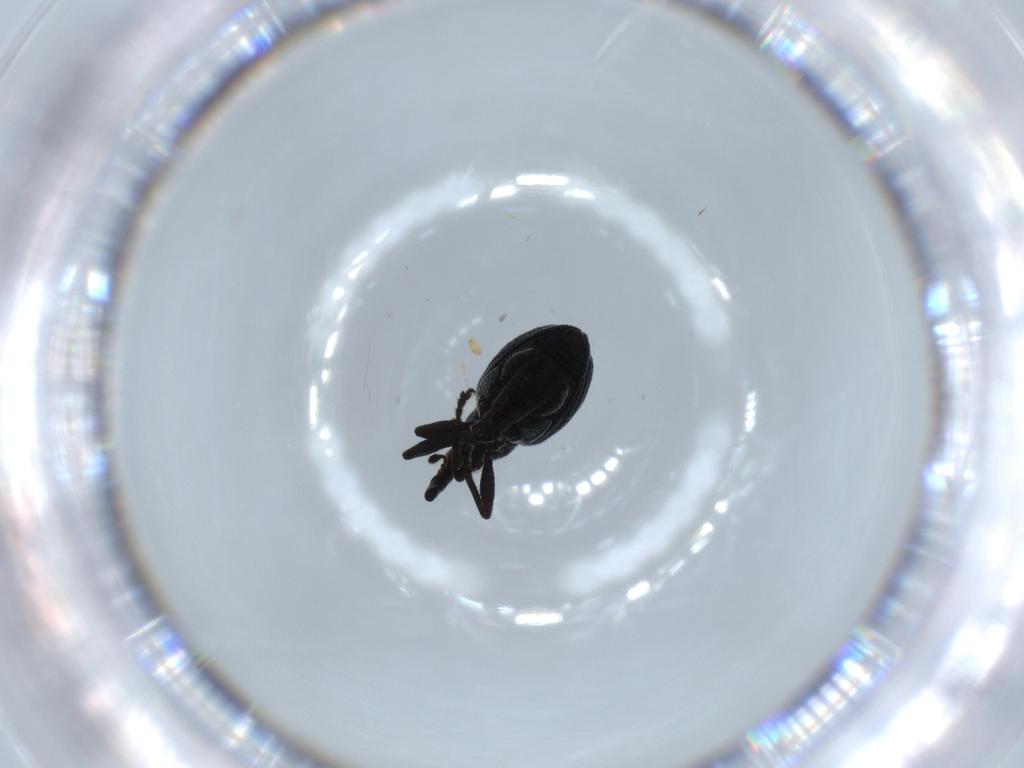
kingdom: Animalia
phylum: Arthropoda
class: Insecta
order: Coleoptera
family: Brentidae
